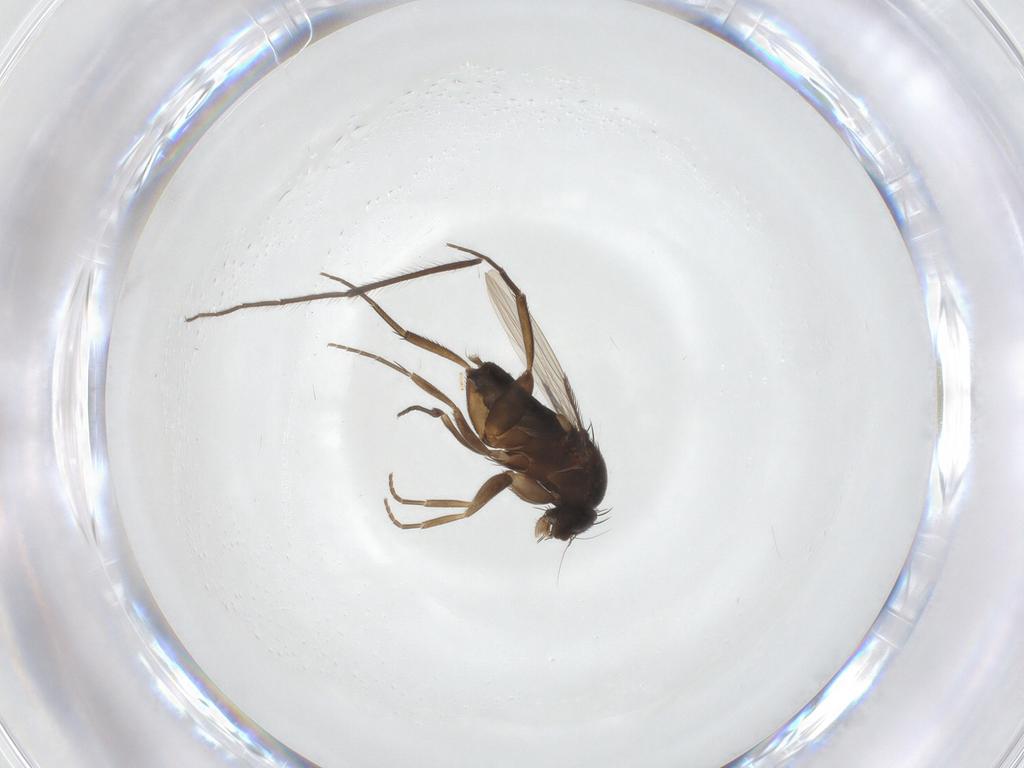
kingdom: Animalia
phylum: Arthropoda
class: Insecta
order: Diptera
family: Phoridae
